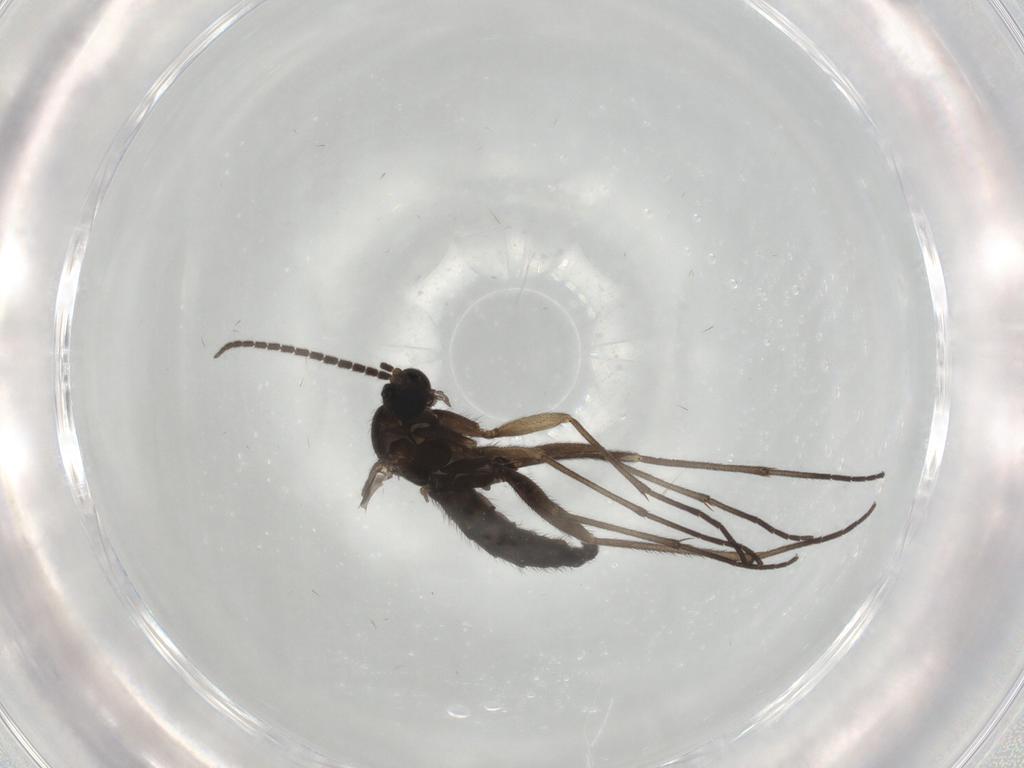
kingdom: Animalia
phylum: Arthropoda
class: Insecta
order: Diptera
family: Sciaridae
